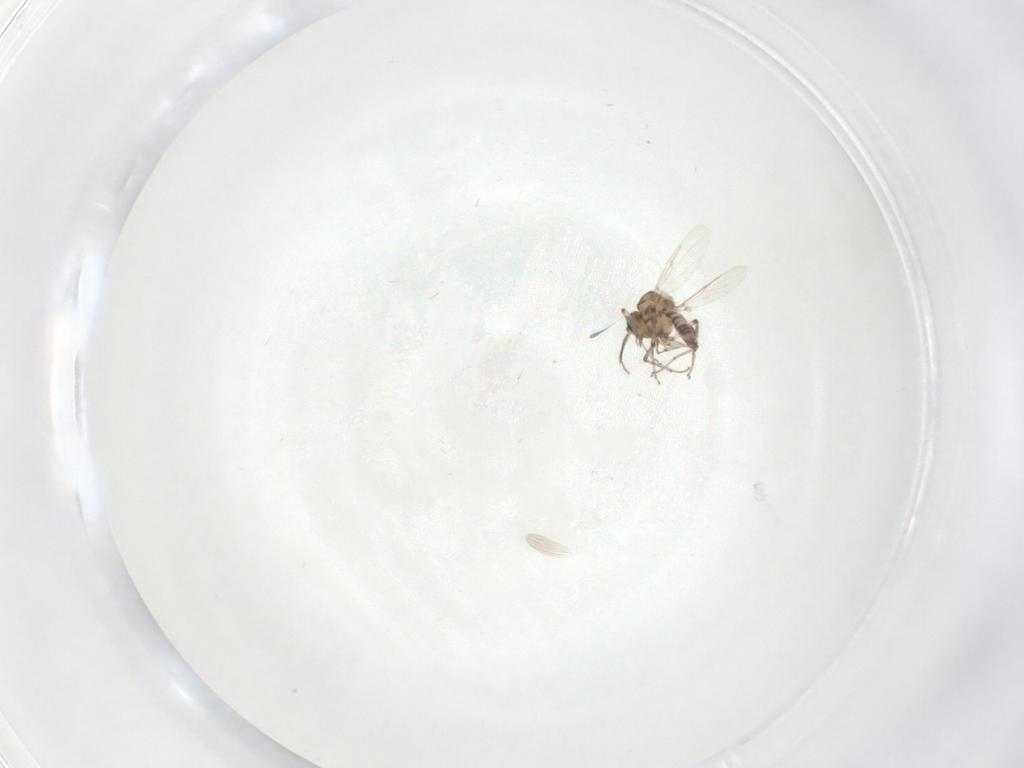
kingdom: Animalia
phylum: Arthropoda
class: Insecta
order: Diptera
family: Ceratopogonidae
